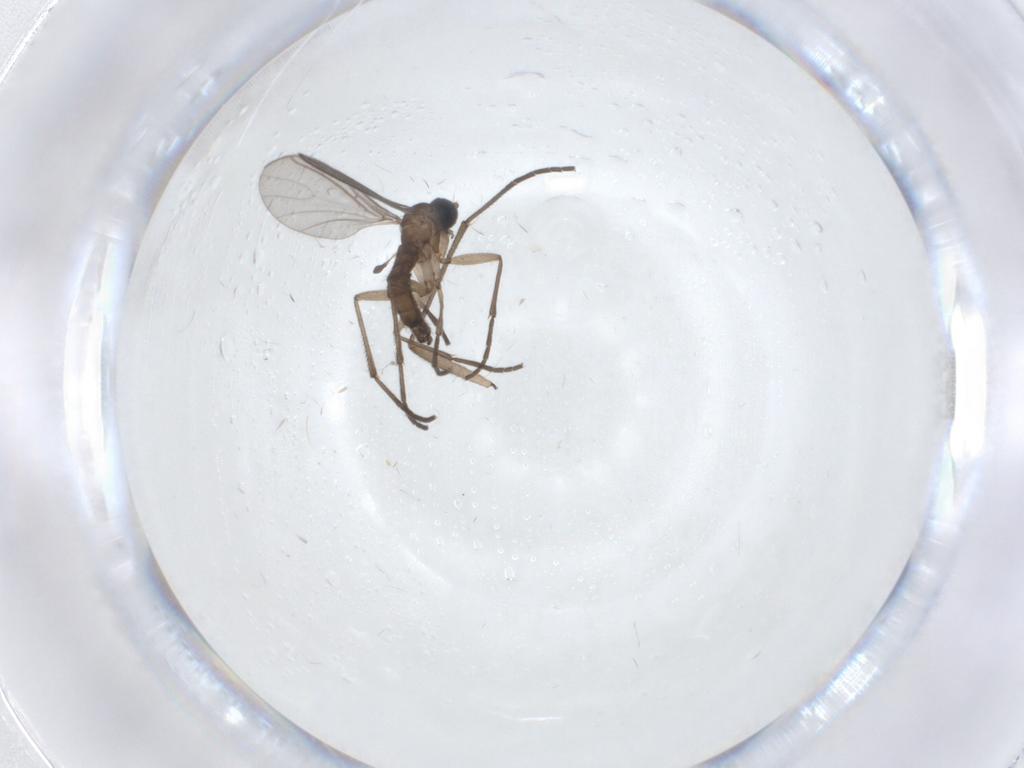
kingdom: Animalia
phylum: Arthropoda
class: Insecta
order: Diptera
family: Sciaridae
